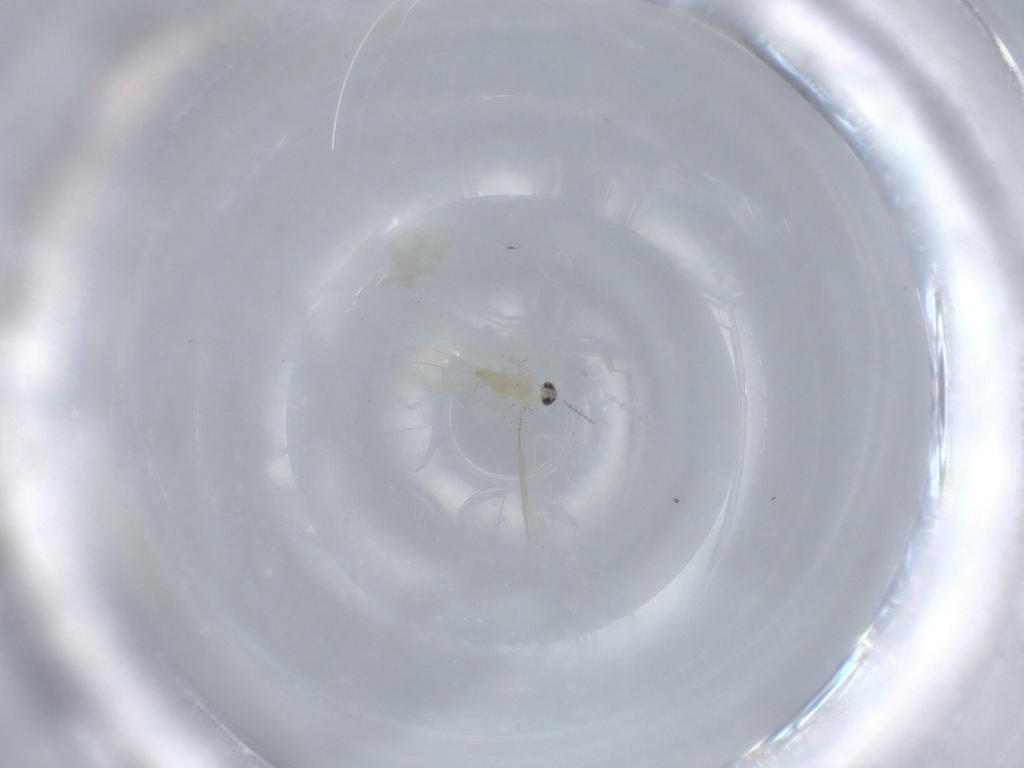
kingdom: Animalia
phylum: Arthropoda
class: Insecta
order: Diptera
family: Cecidomyiidae
